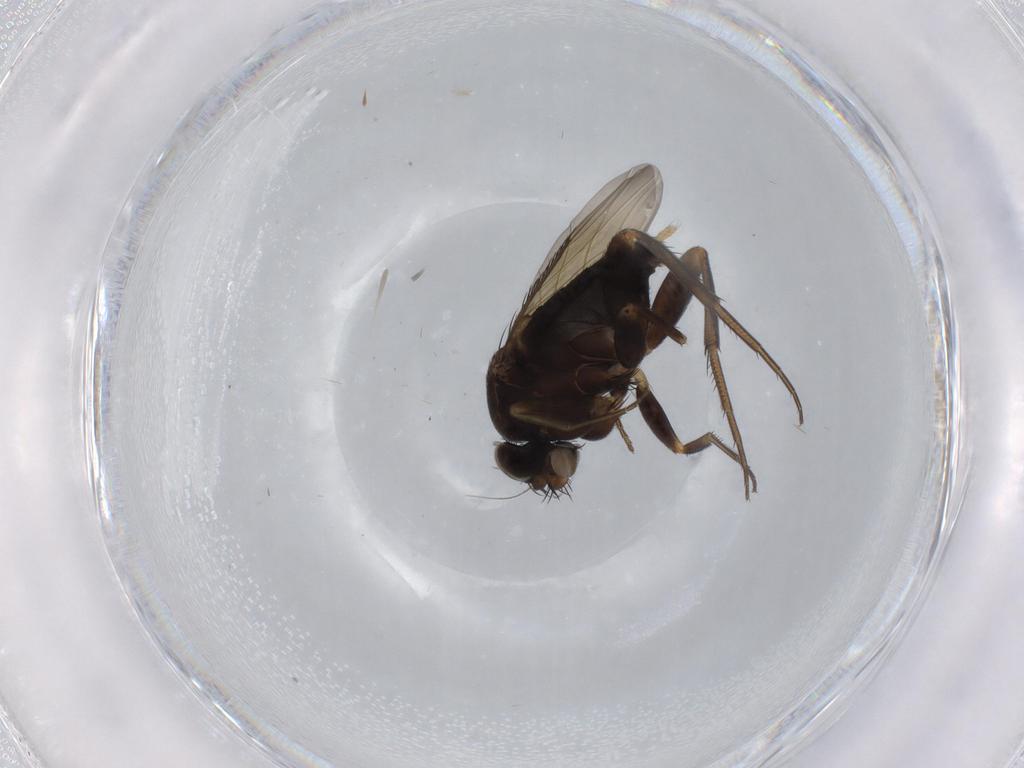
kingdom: Animalia
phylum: Arthropoda
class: Insecta
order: Diptera
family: Phoridae
